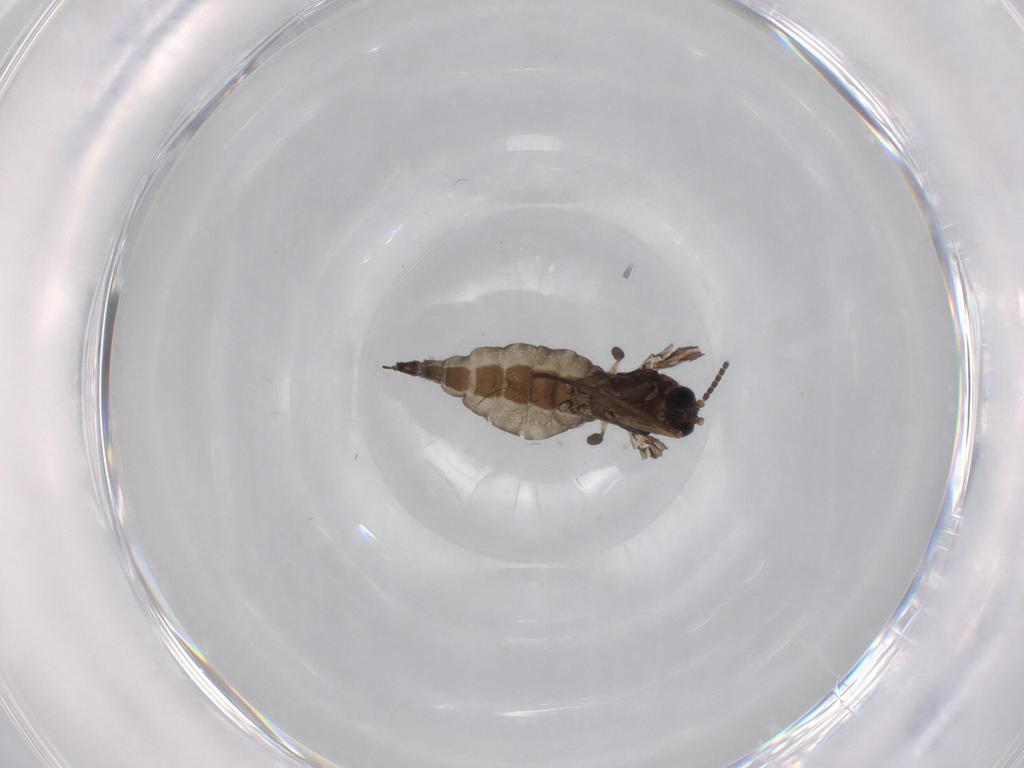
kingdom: Animalia
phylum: Arthropoda
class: Insecta
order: Diptera
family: Sciaridae
